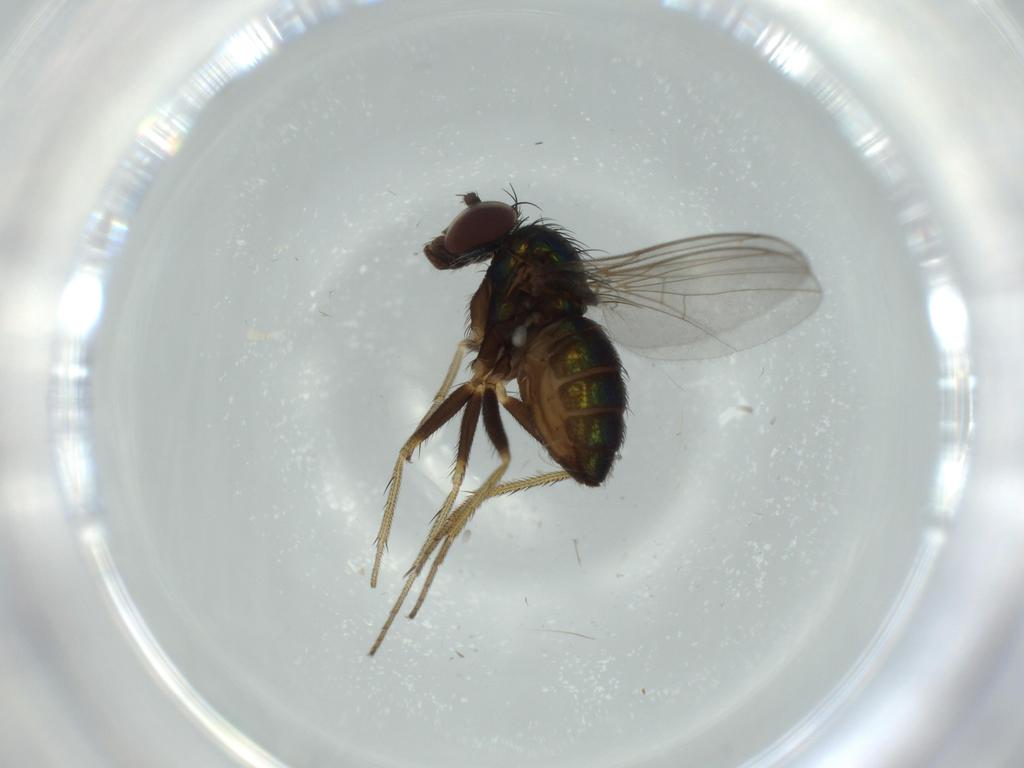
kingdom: Animalia
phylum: Arthropoda
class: Insecta
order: Diptera
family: Dolichopodidae
